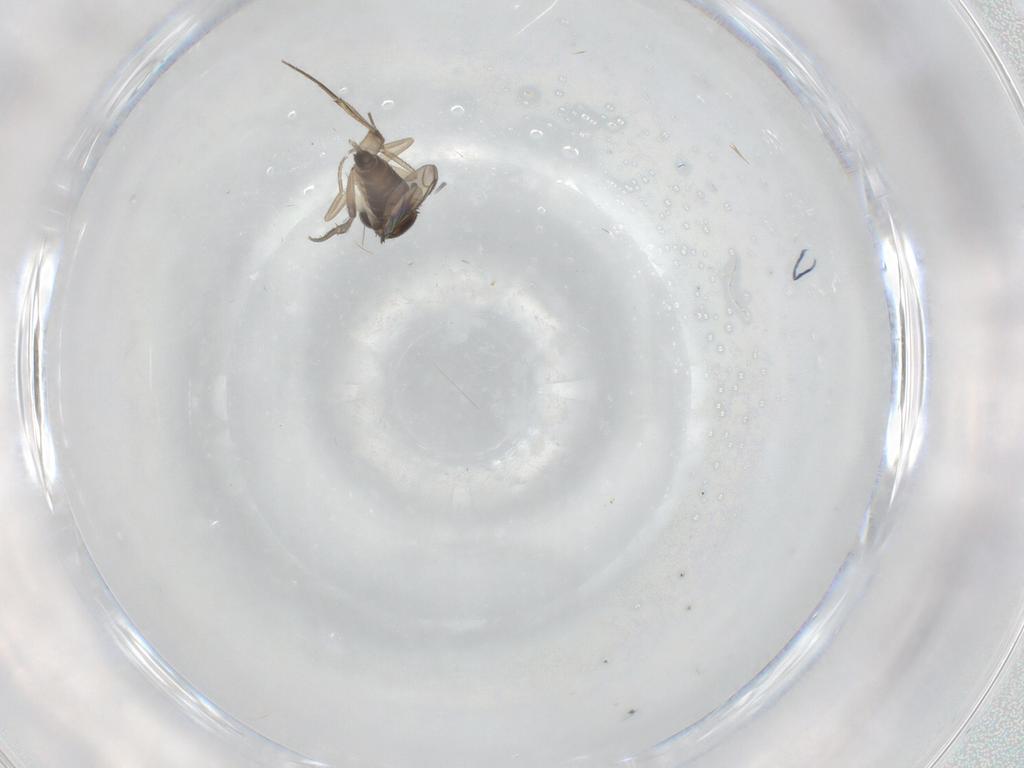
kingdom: Animalia
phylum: Arthropoda
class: Insecta
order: Diptera
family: Phoridae
